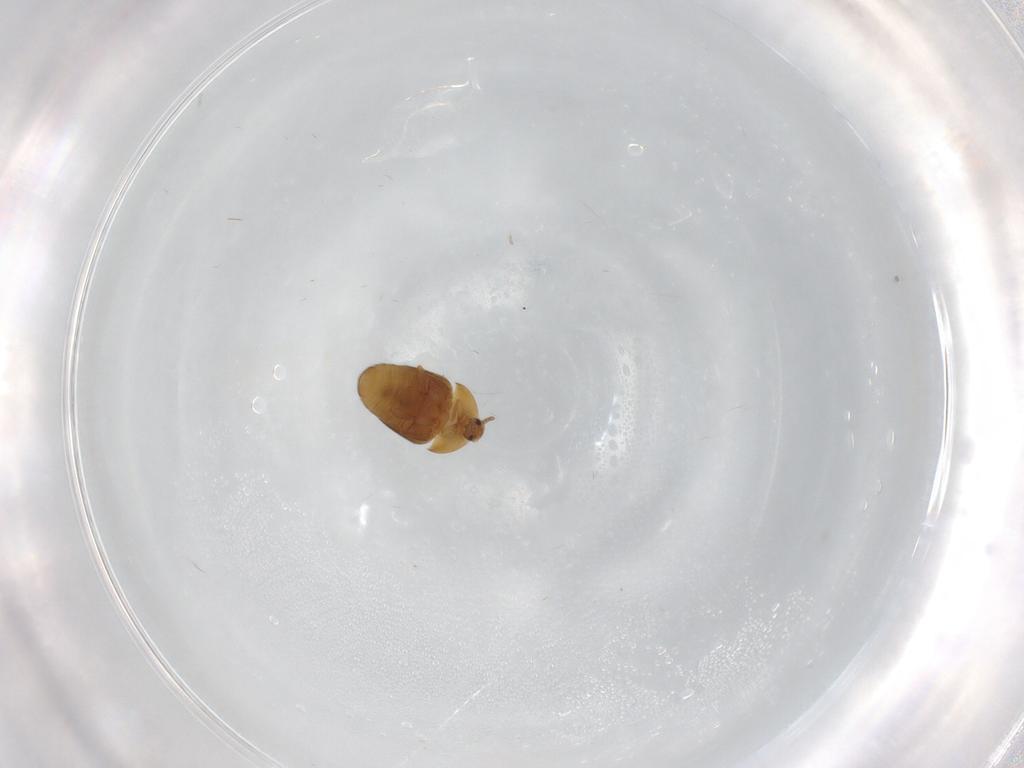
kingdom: Animalia
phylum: Arthropoda
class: Insecta
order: Coleoptera
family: Corylophidae
